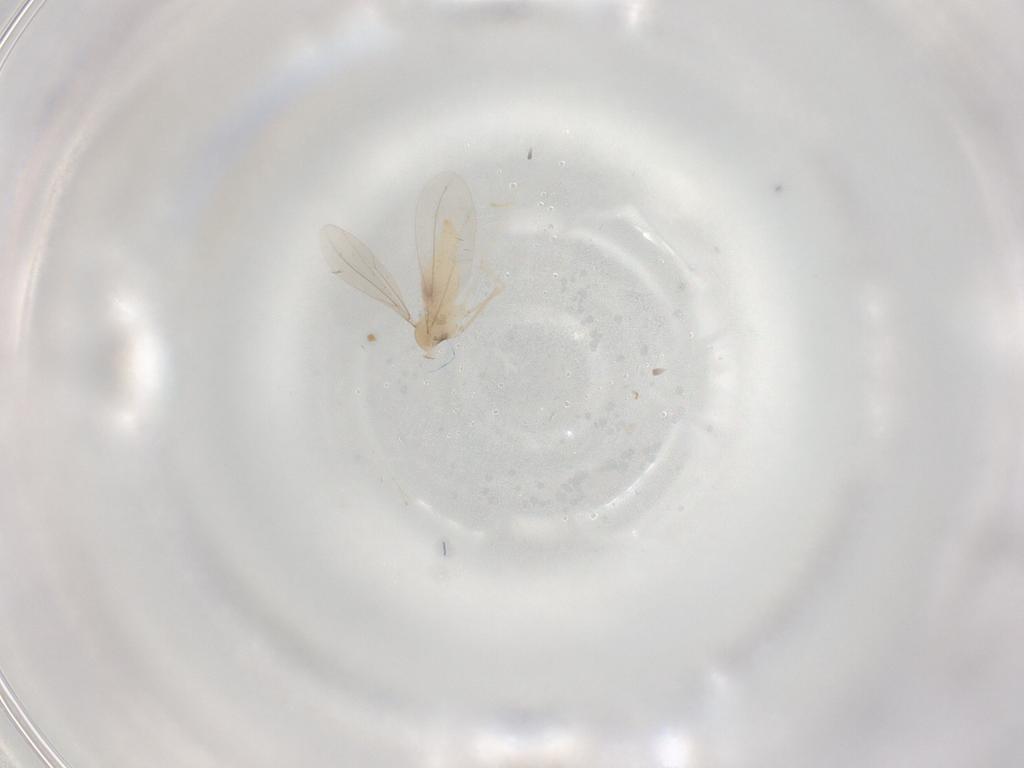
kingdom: Animalia
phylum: Arthropoda
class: Insecta
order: Diptera
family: Cecidomyiidae
